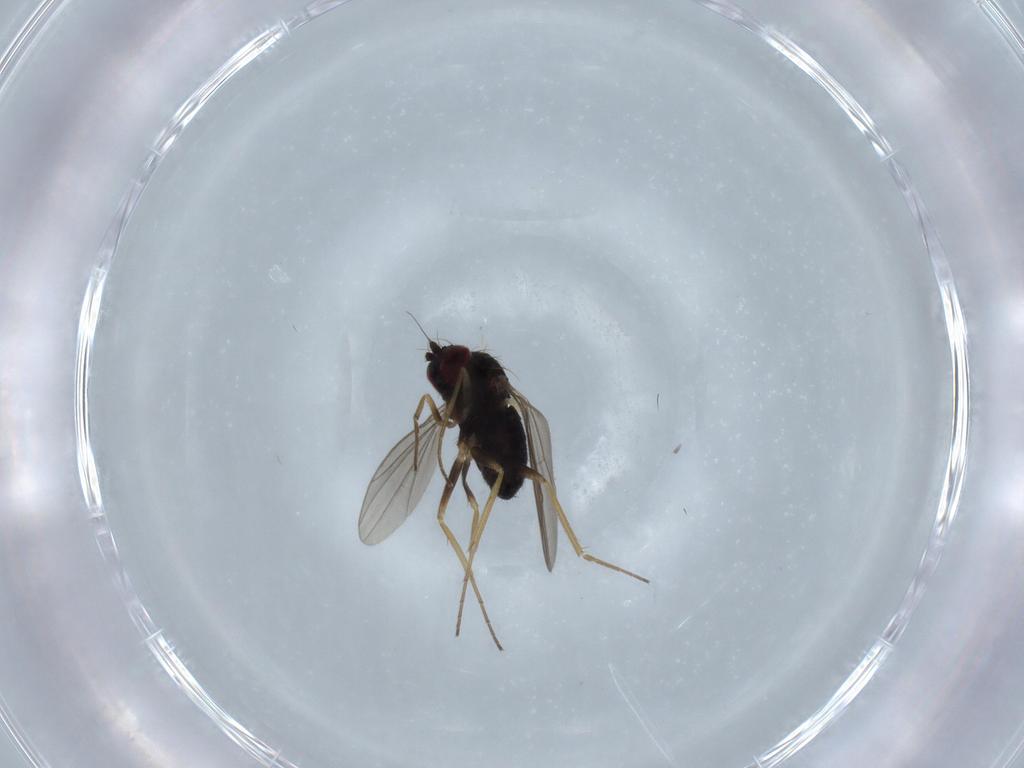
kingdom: Animalia
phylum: Arthropoda
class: Insecta
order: Diptera
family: Dolichopodidae
